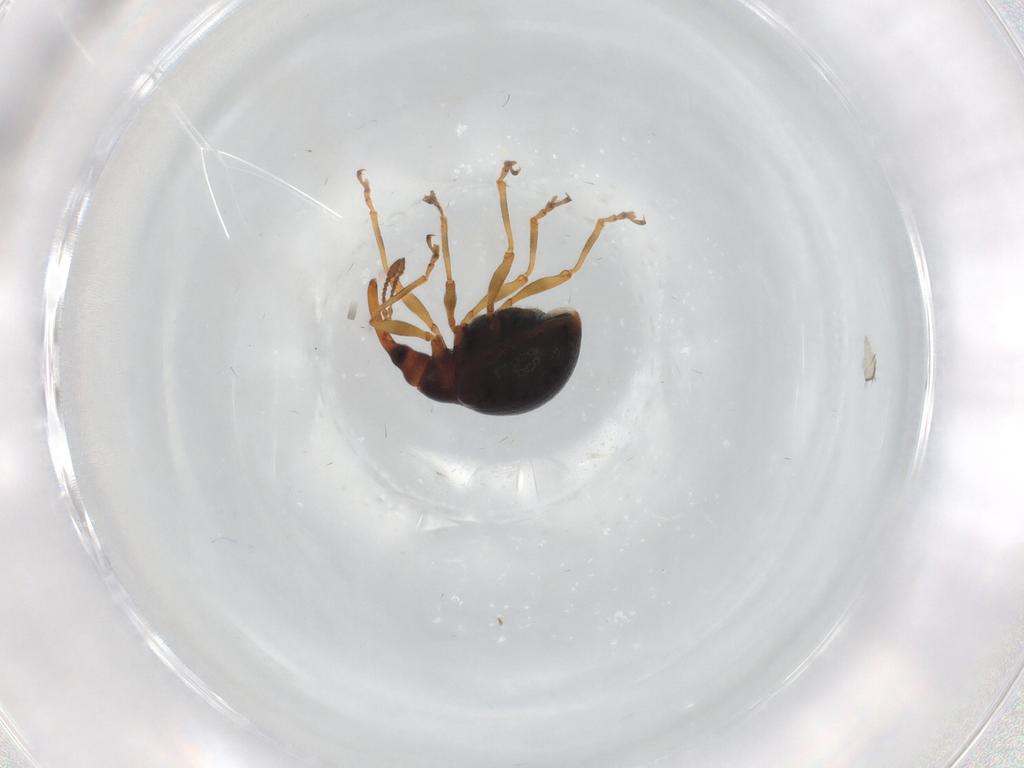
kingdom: Animalia
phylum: Arthropoda
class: Insecta
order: Coleoptera
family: Brentidae
